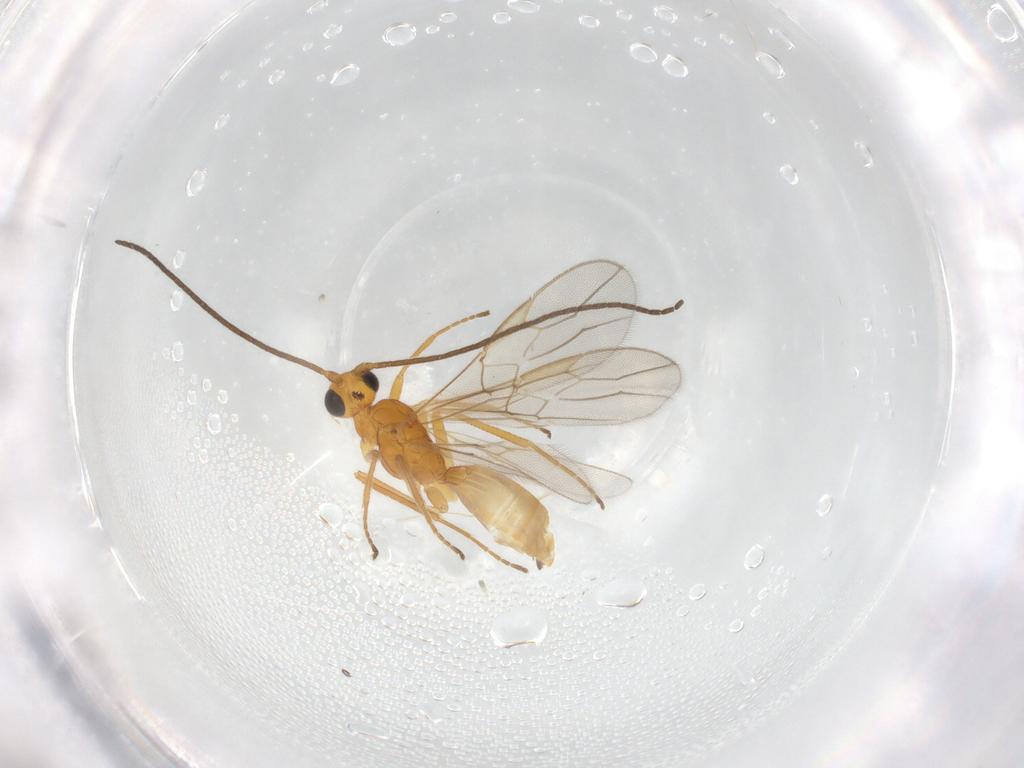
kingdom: Animalia
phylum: Arthropoda
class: Insecta
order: Hymenoptera
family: Braconidae
